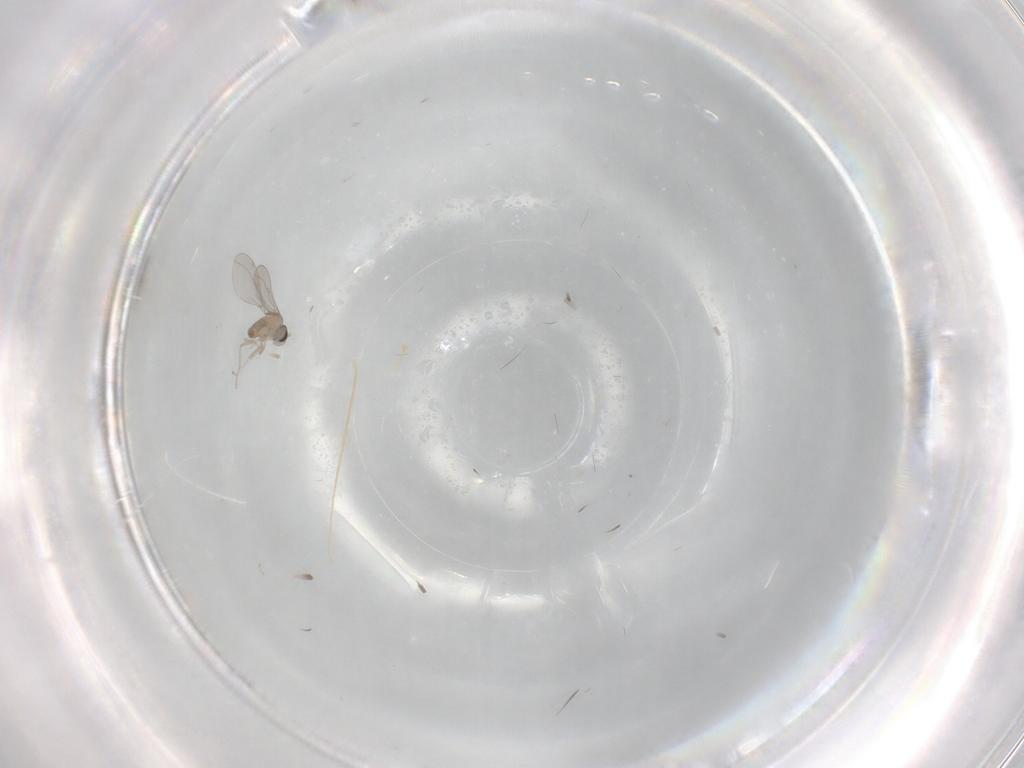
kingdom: Animalia
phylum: Arthropoda
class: Insecta
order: Diptera
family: Cecidomyiidae
